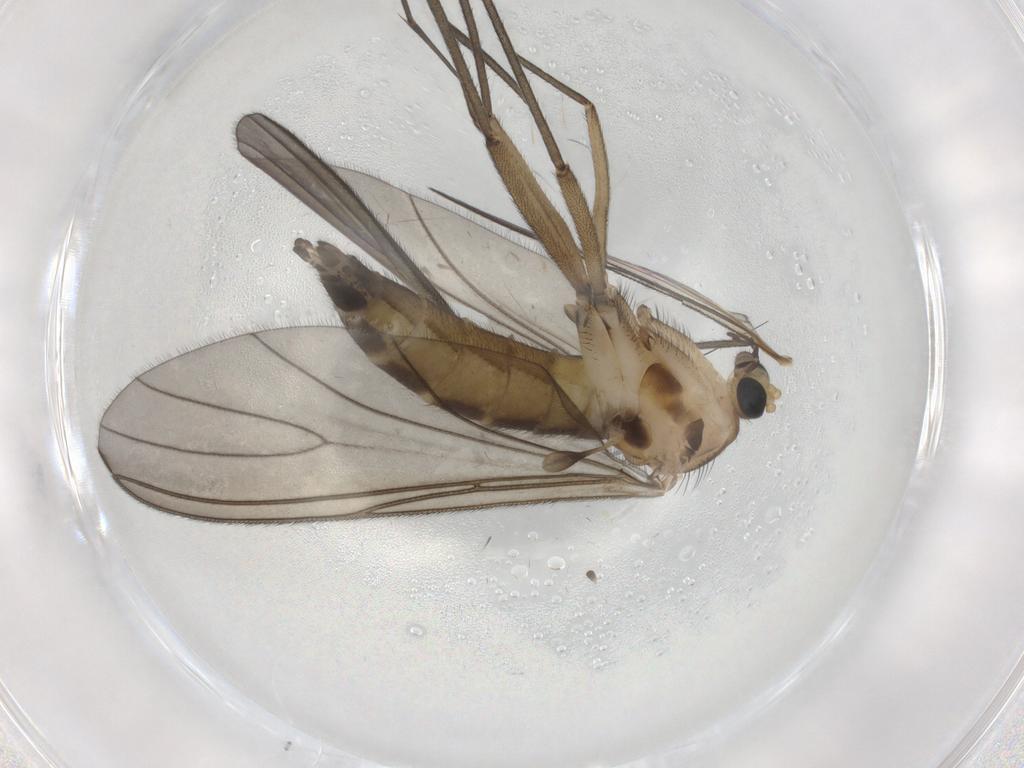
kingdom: Animalia
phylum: Arthropoda
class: Insecta
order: Diptera
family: Sciaridae
